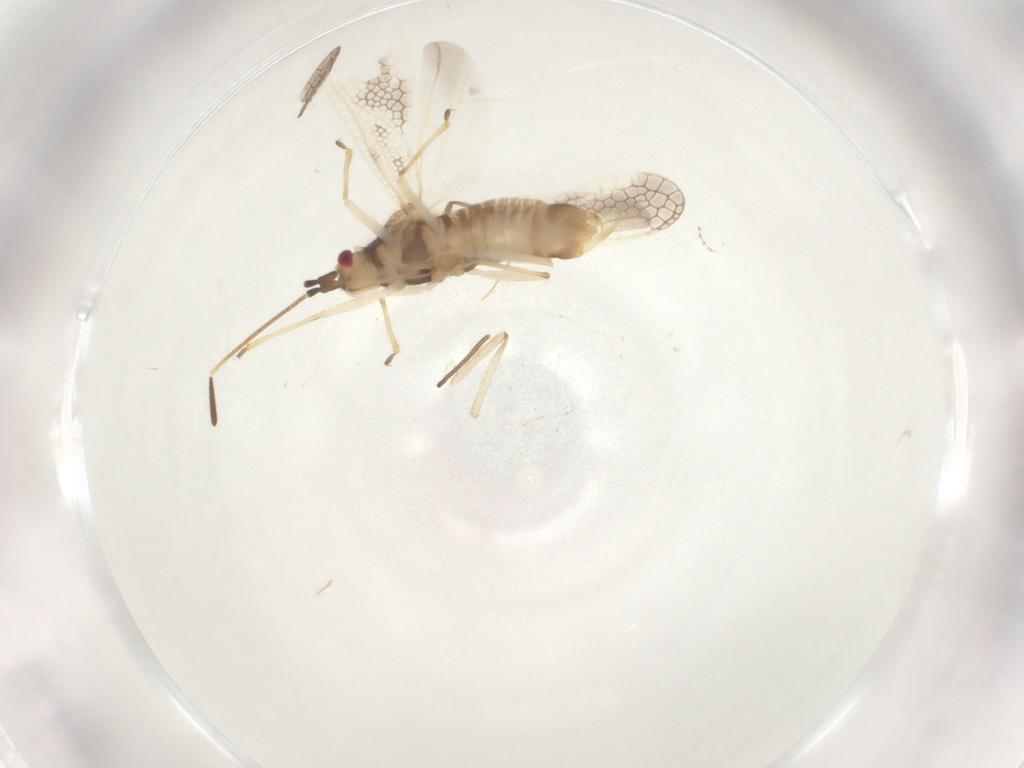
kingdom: Animalia
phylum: Arthropoda
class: Insecta
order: Hemiptera
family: Tingidae
